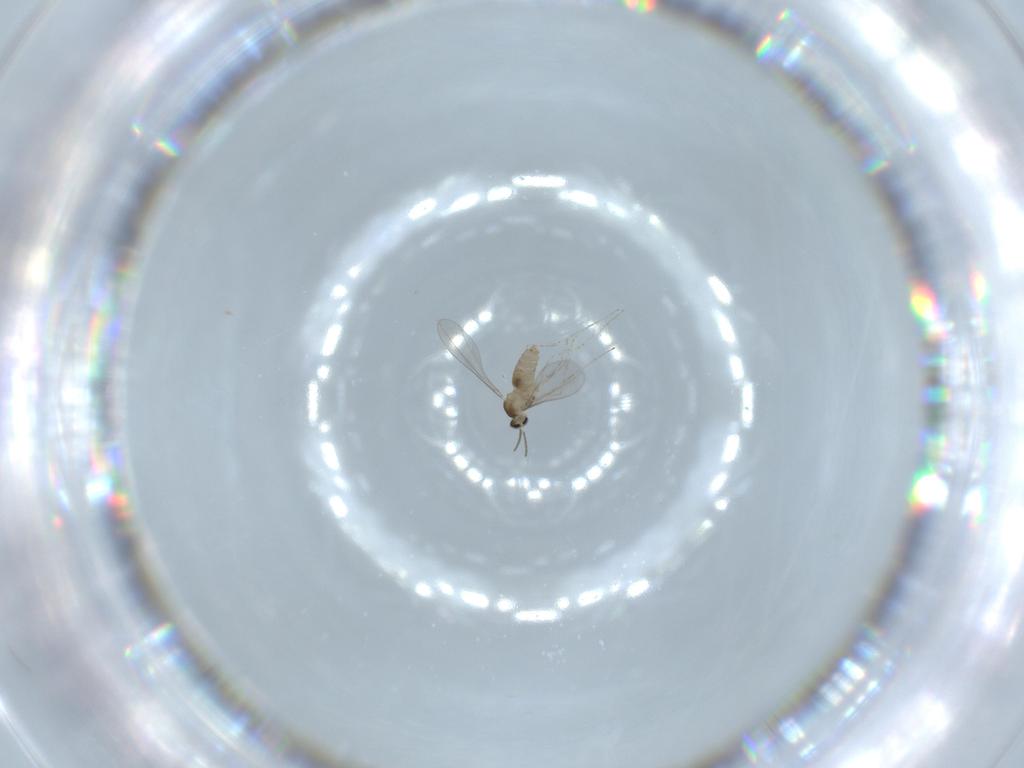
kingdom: Animalia
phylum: Arthropoda
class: Insecta
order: Diptera
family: Cecidomyiidae
